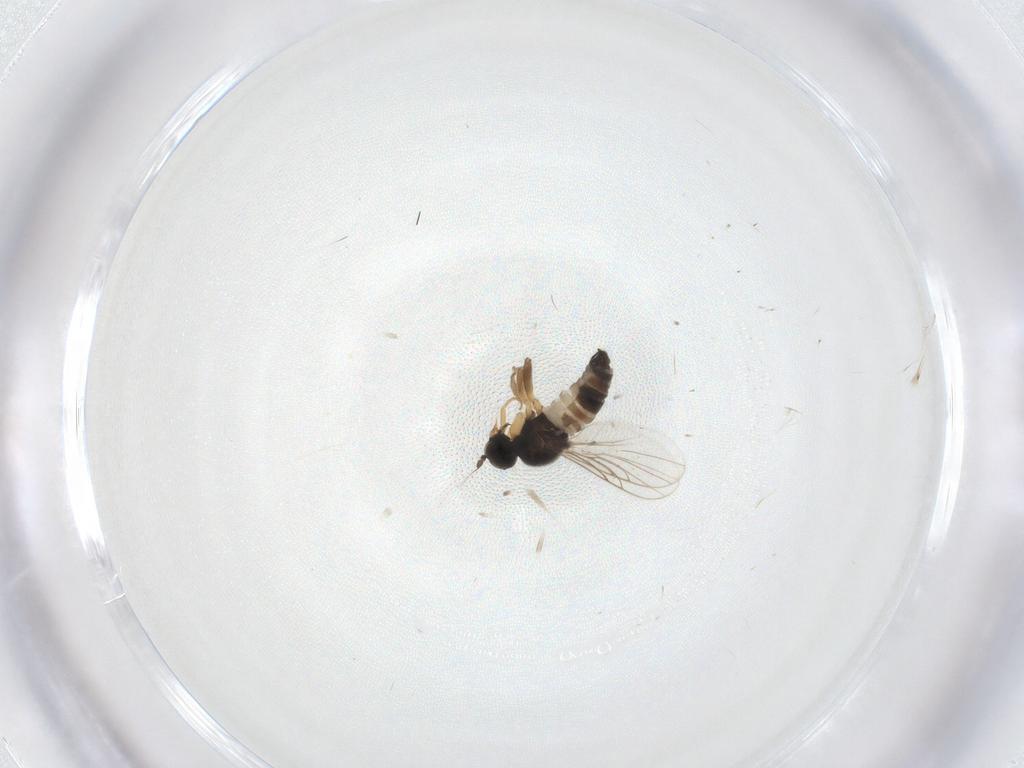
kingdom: Animalia
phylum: Arthropoda
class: Insecta
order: Diptera
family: Hybotidae
